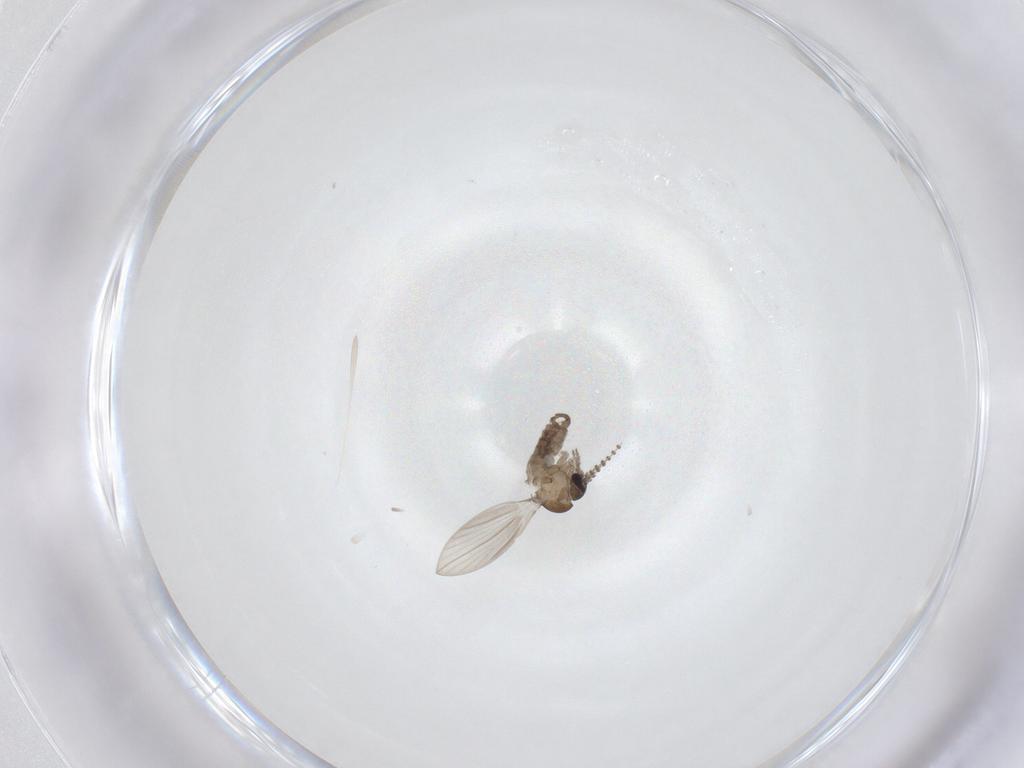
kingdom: Animalia
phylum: Arthropoda
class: Insecta
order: Diptera
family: Psychodidae
